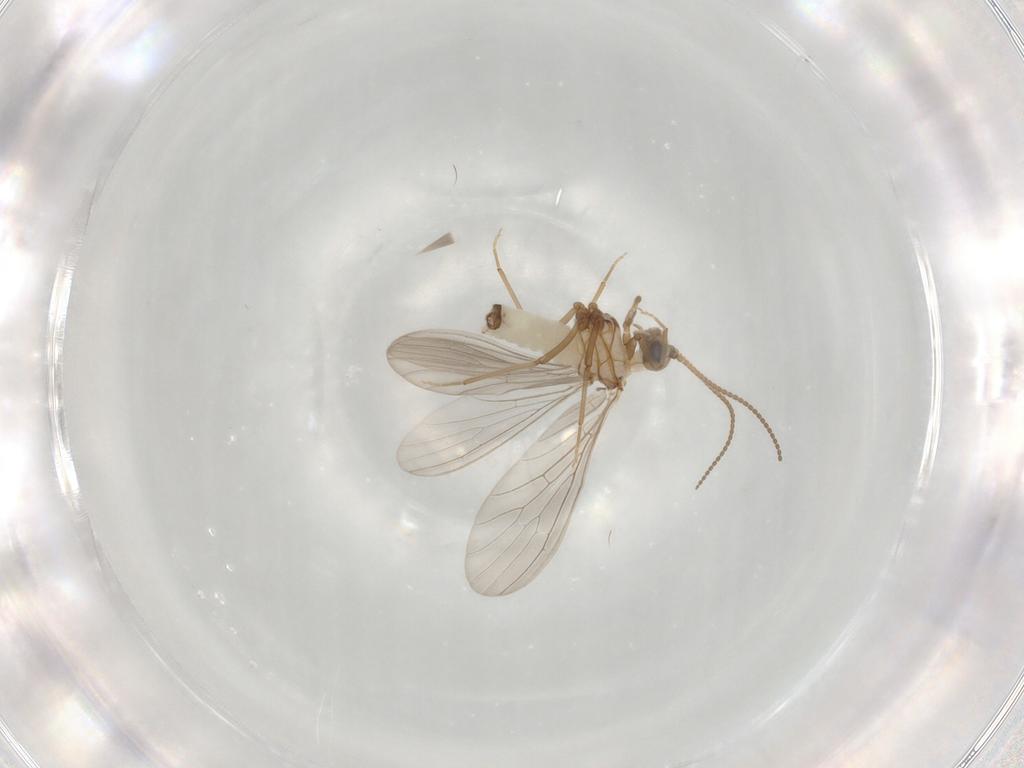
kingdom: Animalia
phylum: Arthropoda
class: Insecta
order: Neuroptera
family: Coniopterygidae
